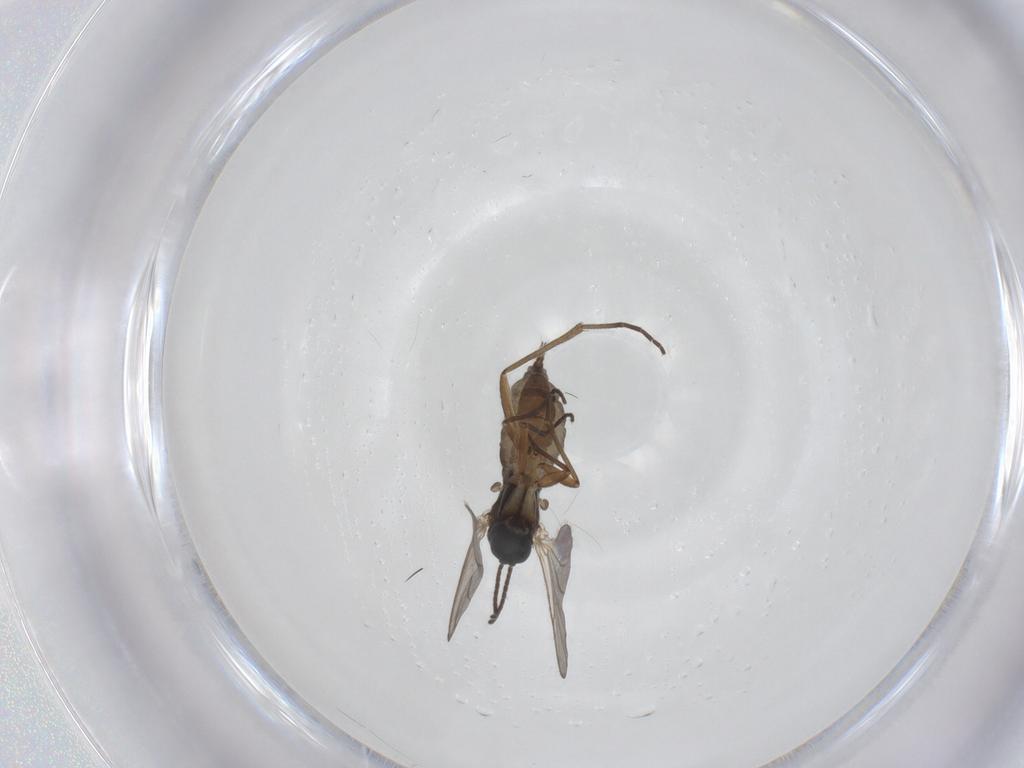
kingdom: Animalia
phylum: Arthropoda
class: Insecta
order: Diptera
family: Sciaridae
